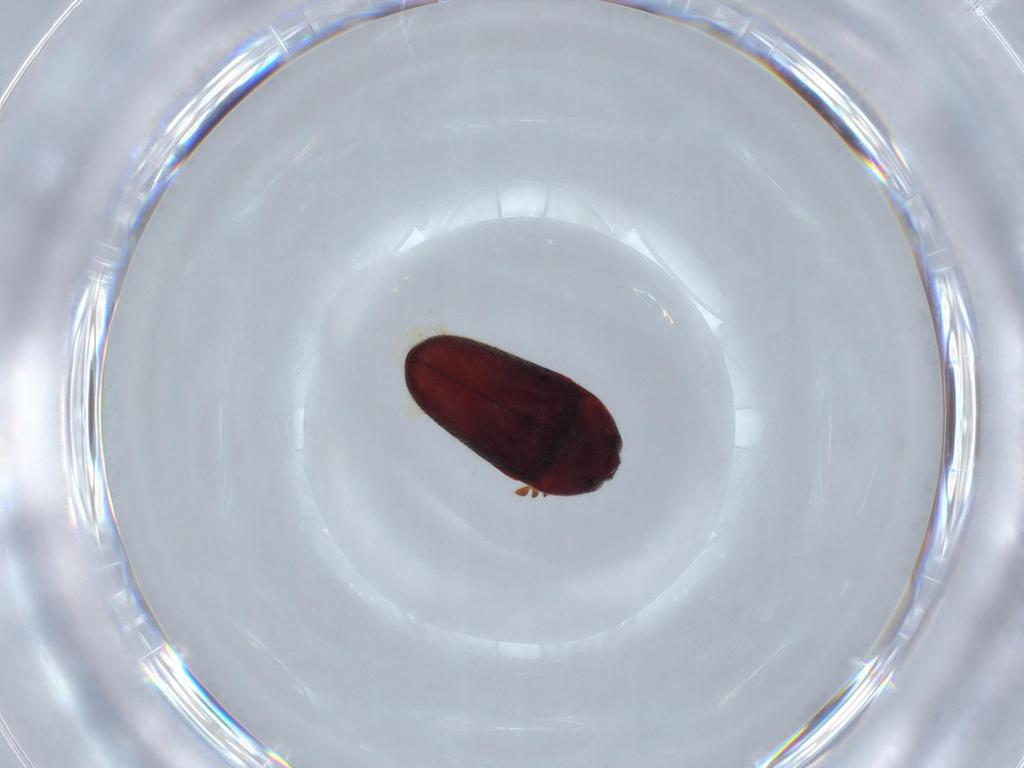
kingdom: Animalia
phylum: Arthropoda
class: Insecta
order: Coleoptera
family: Throscidae
